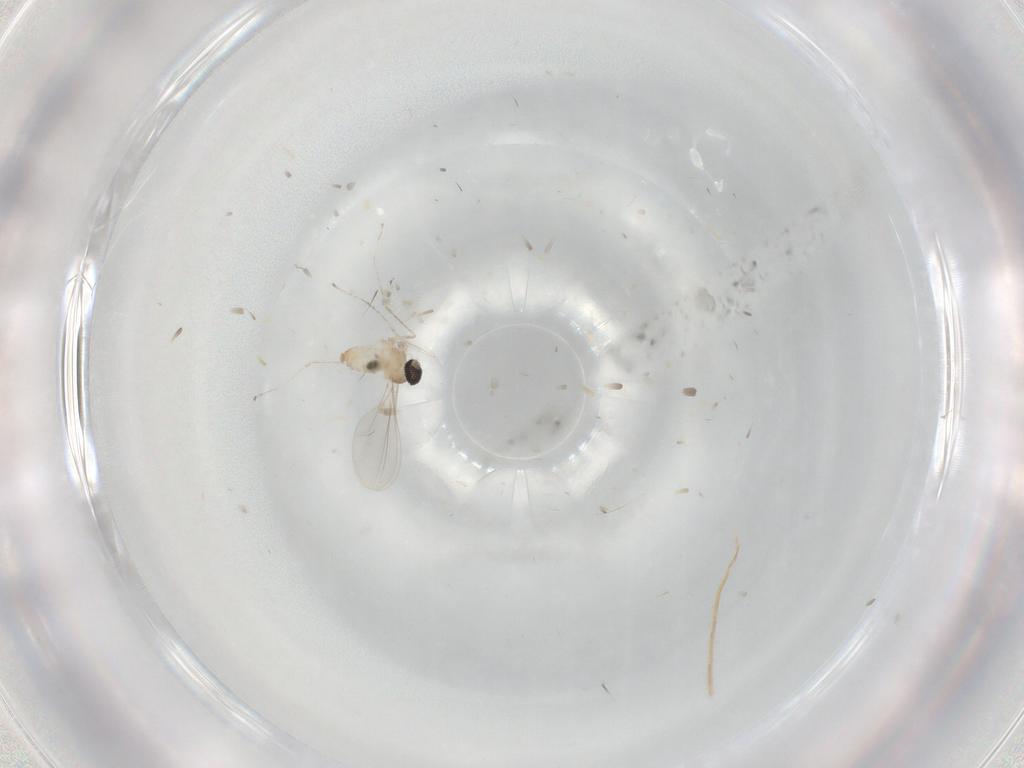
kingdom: Animalia
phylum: Arthropoda
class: Insecta
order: Diptera
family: Cecidomyiidae
